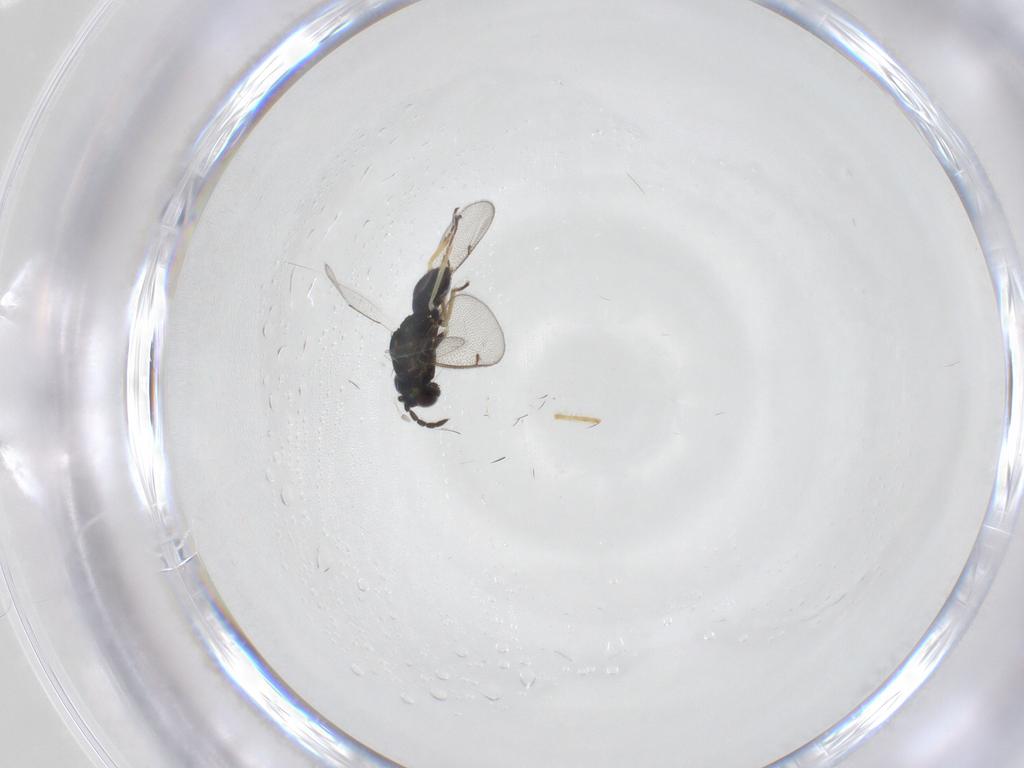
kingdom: Animalia
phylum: Arthropoda
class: Insecta
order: Hymenoptera
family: Eulophidae
